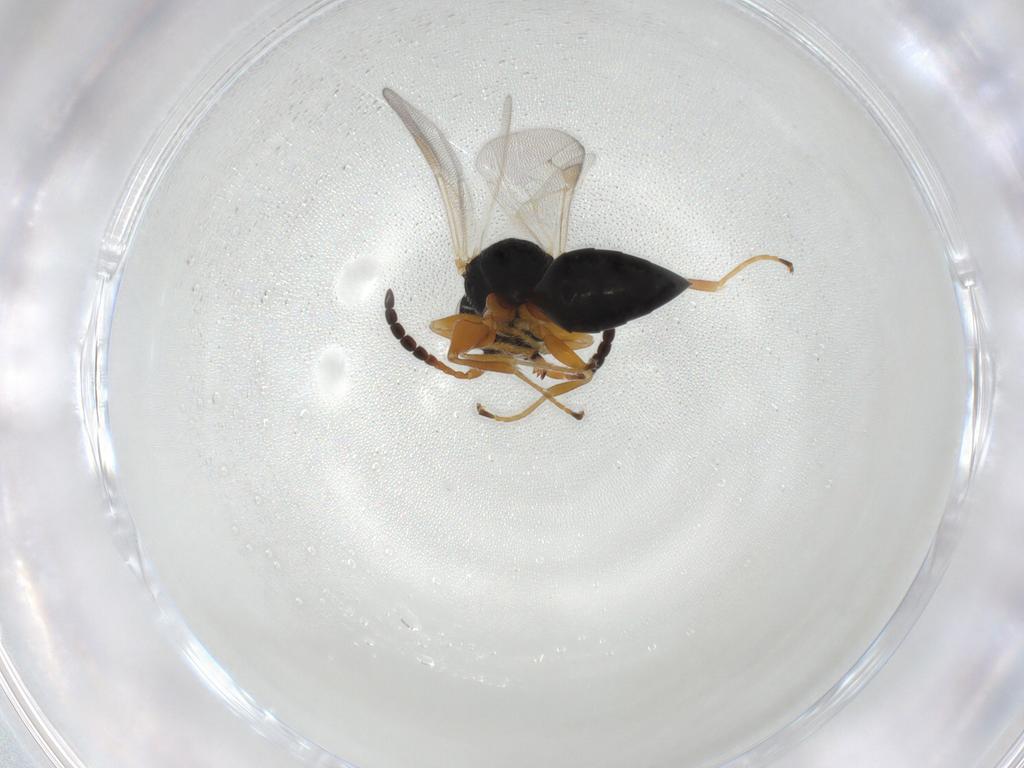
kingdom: Animalia
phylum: Arthropoda
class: Insecta
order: Hymenoptera
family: Dryinidae
